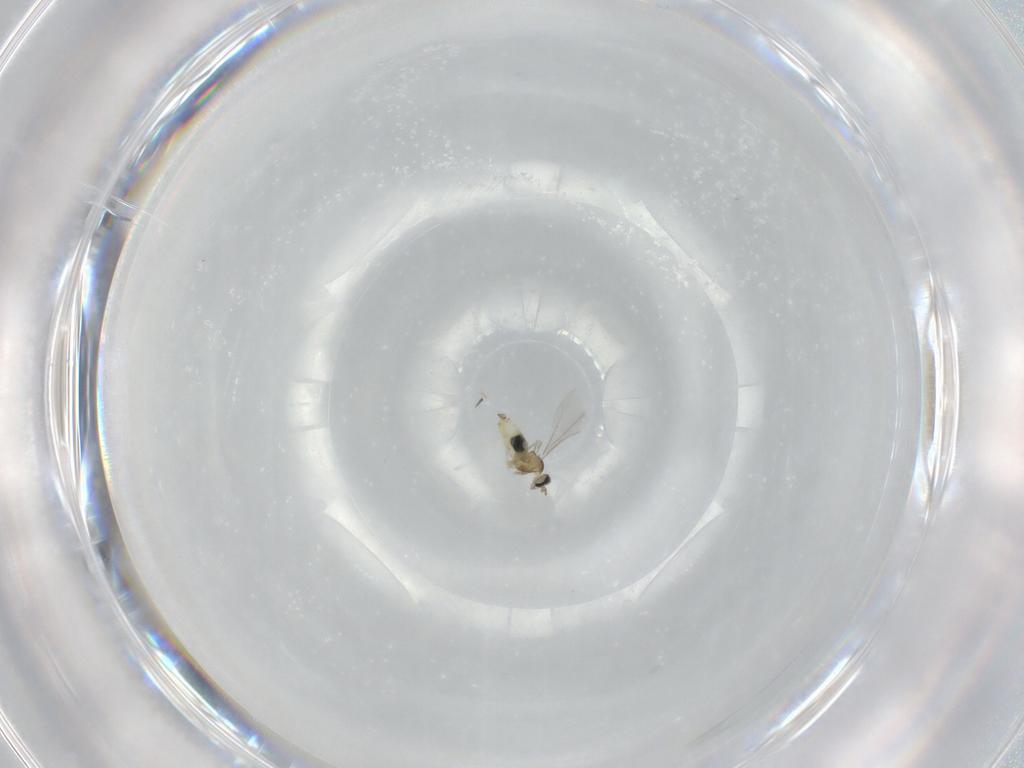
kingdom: Animalia
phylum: Arthropoda
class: Insecta
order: Diptera
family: Cecidomyiidae
